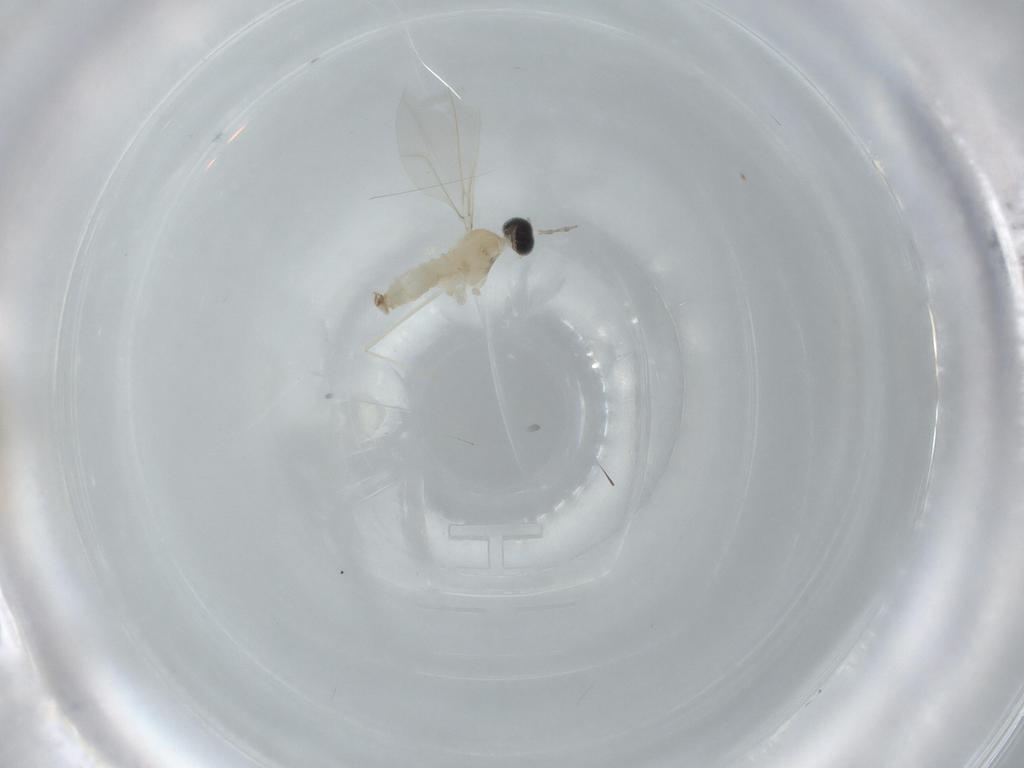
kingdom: Animalia
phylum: Arthropoda
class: Insecta
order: Diptera
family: Cecidomyiidae
